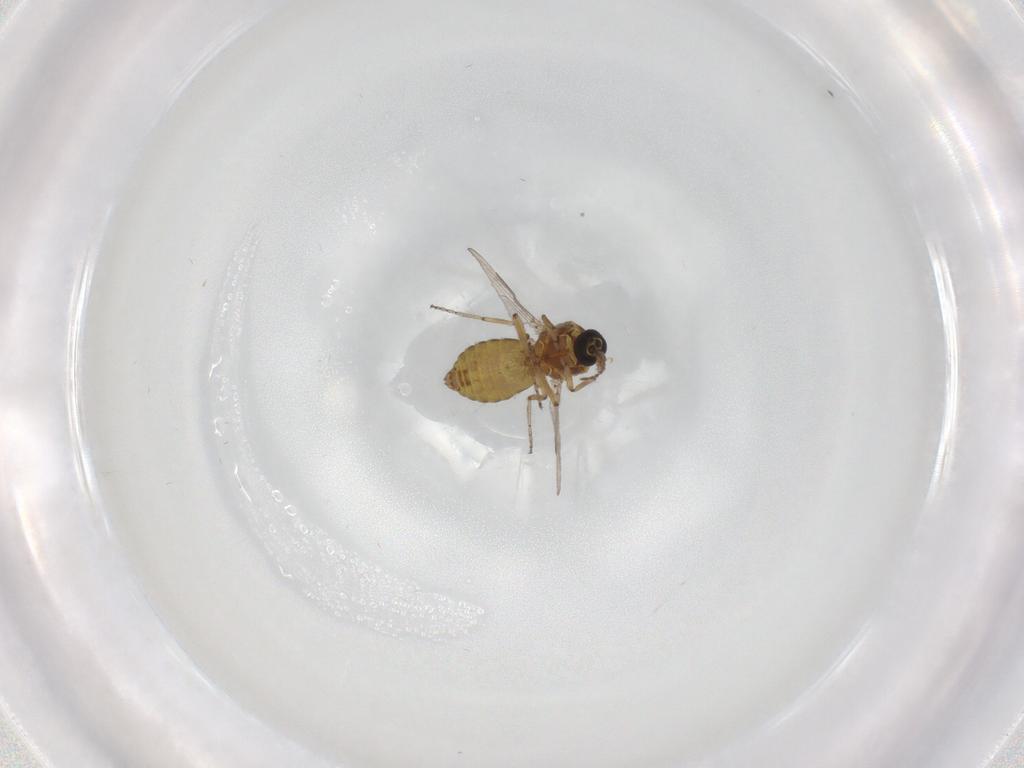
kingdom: Animalia
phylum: Arthropoda
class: Insecta
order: Diptera
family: Ceratopogonidae
